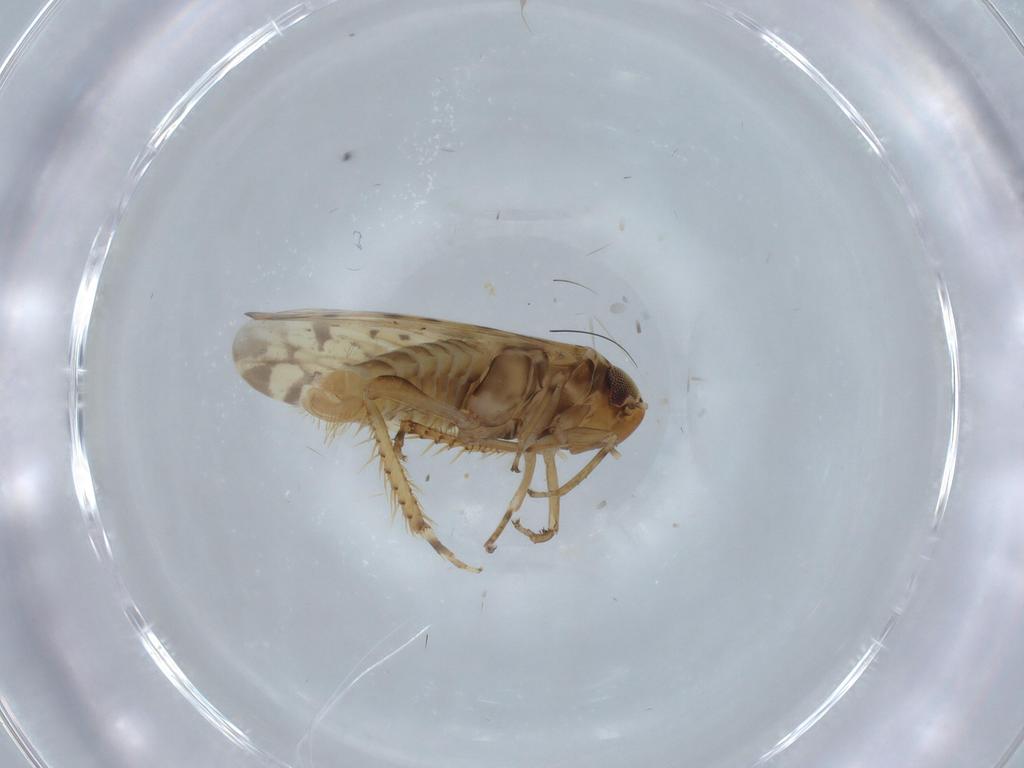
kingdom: Animalia
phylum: Arthropoda
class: Insecta
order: Hemiptera
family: Cicadellidae
